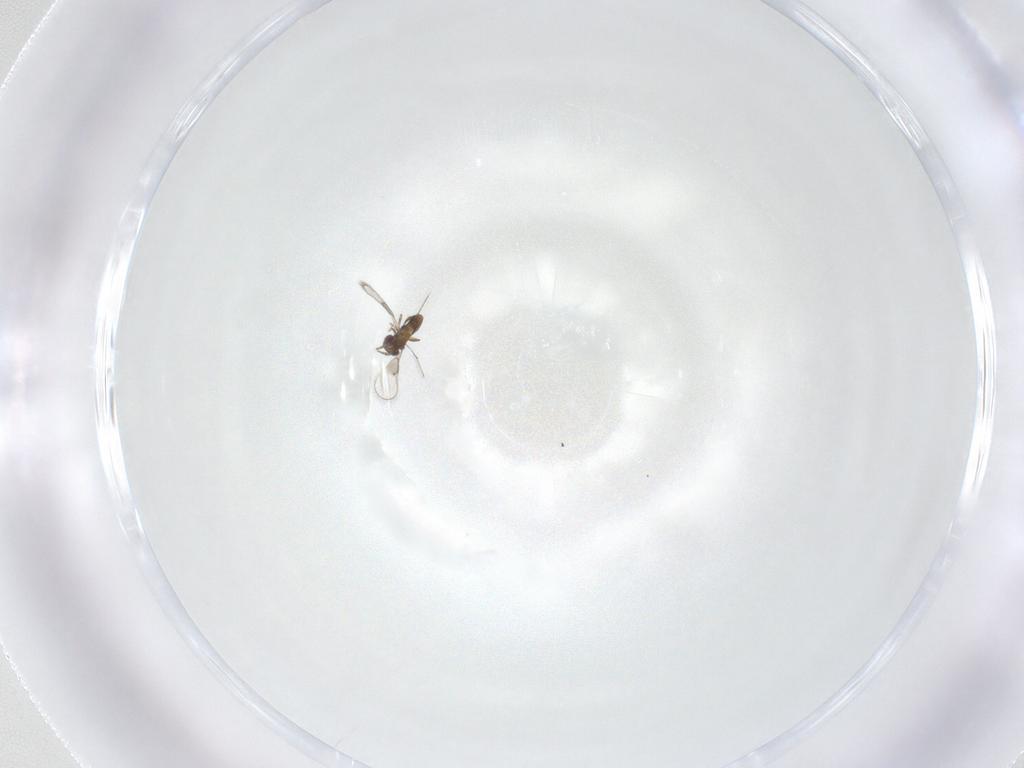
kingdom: Animalia
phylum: Arthropoda
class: Insecta
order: Hymenoptera
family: Trichogrammatidae
